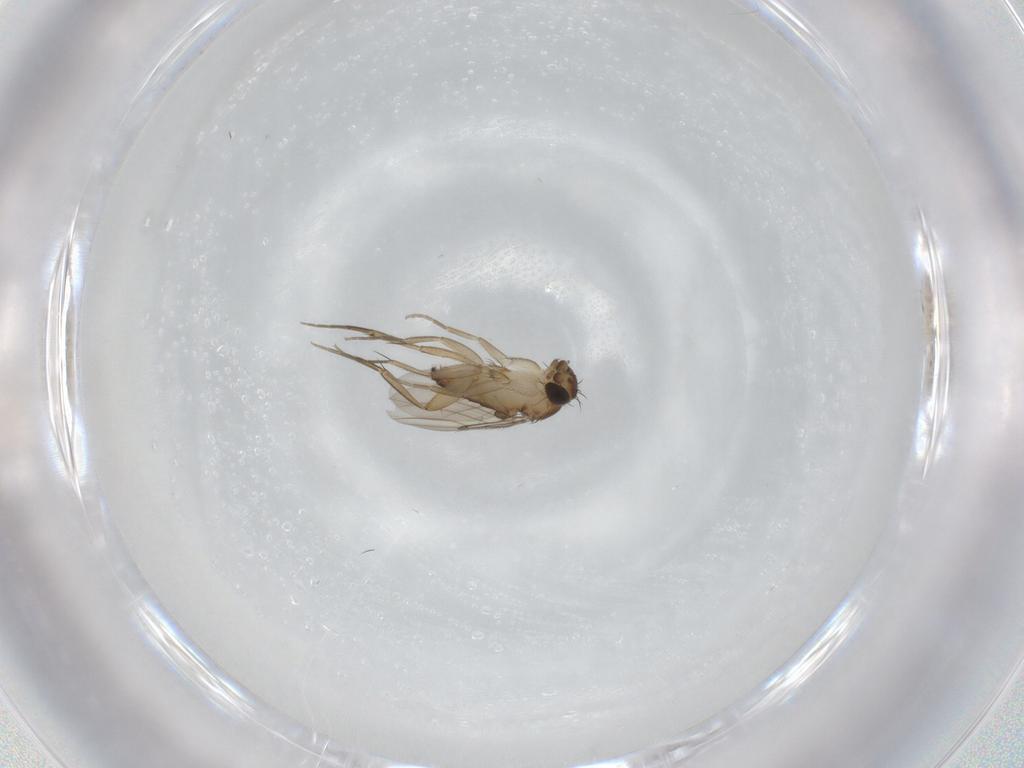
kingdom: Animalia
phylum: Arthropoda
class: Insecta
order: Diptera
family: Phoridae
